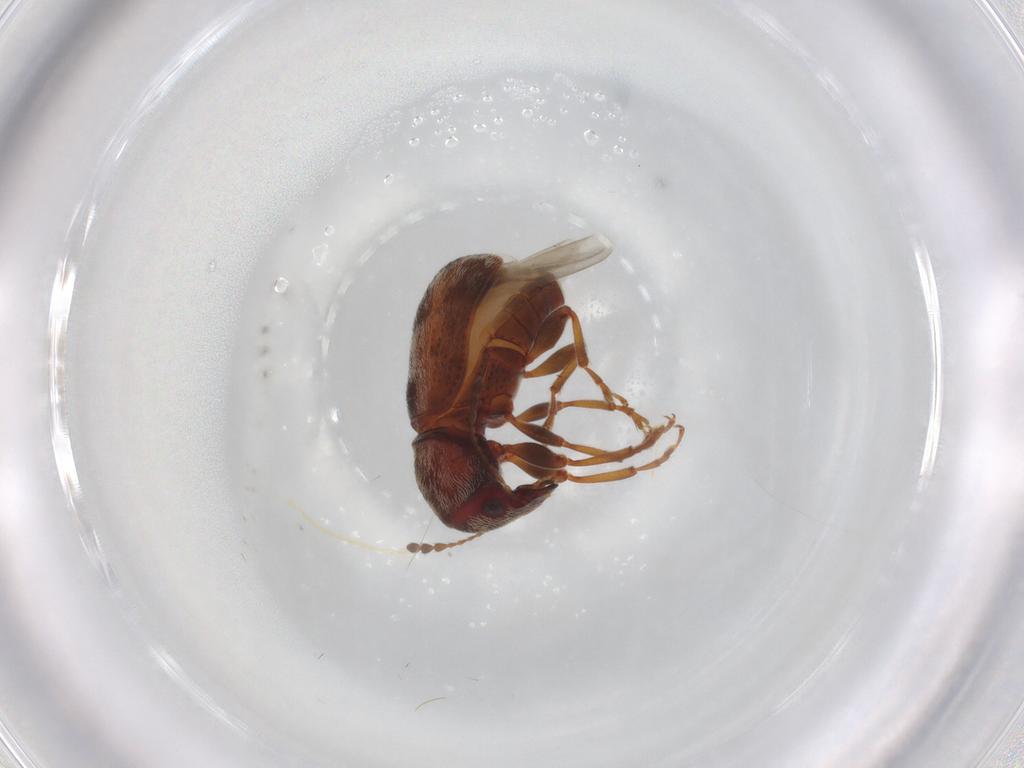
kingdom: Animalia
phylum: Arthropoda
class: Insecta
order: Coleoptera
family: Anthribidae
